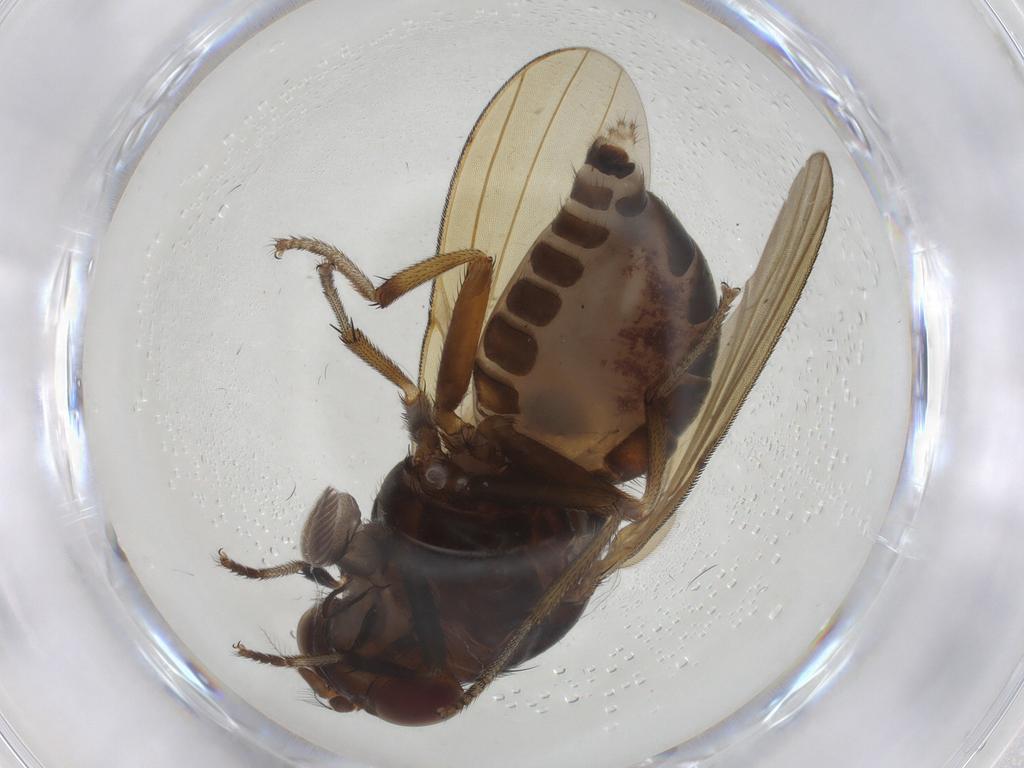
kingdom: Animalia
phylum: Arthropoda
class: Insecta
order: Diptera
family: Lauxaniidae
